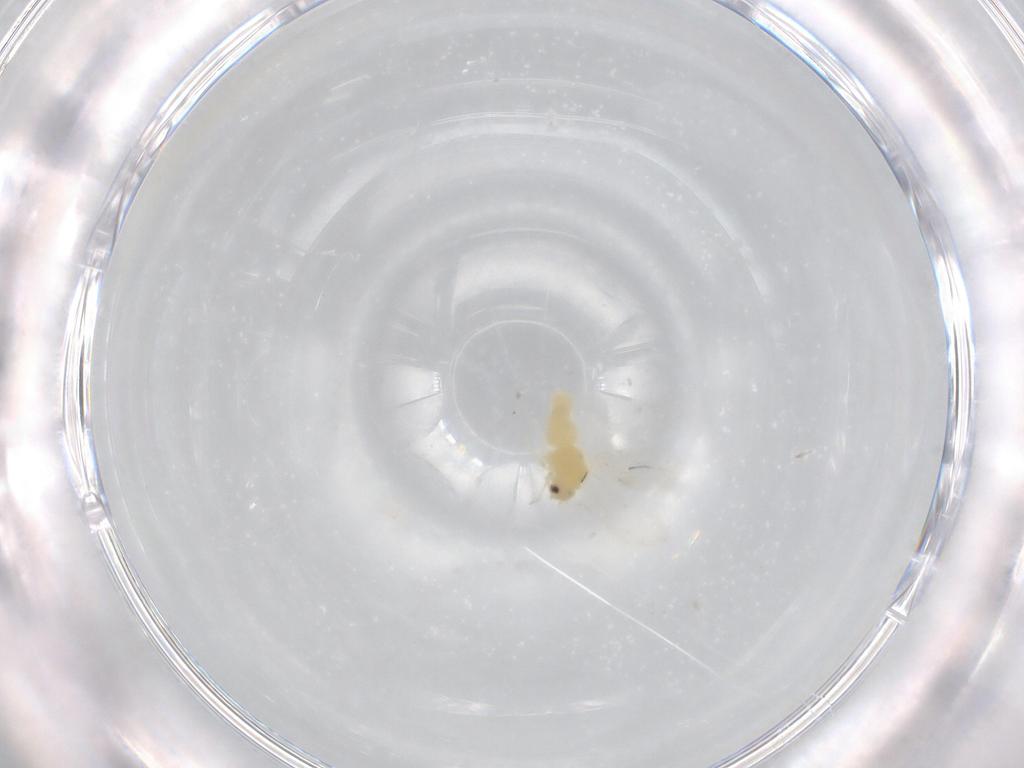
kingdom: Animalia
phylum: Arthropoda
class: Insecta
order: Hemiptera
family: Aleyrodidae
